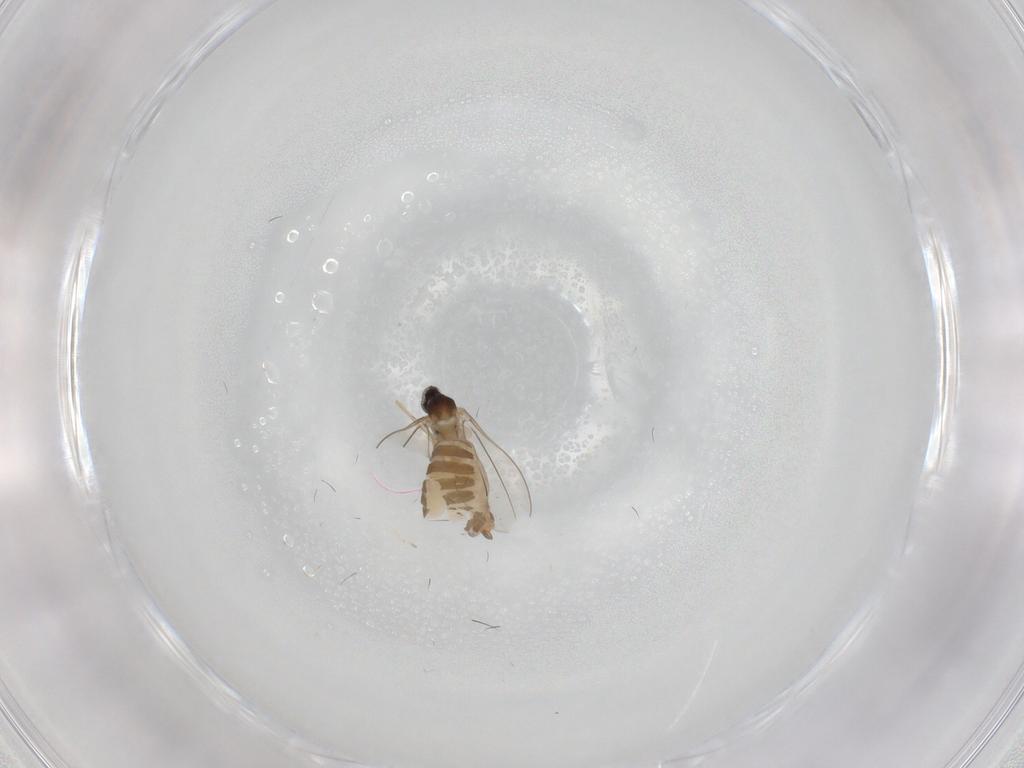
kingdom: Animalia
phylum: Arthropoda
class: Insecta
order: Diptera
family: Cecidomyiidae
